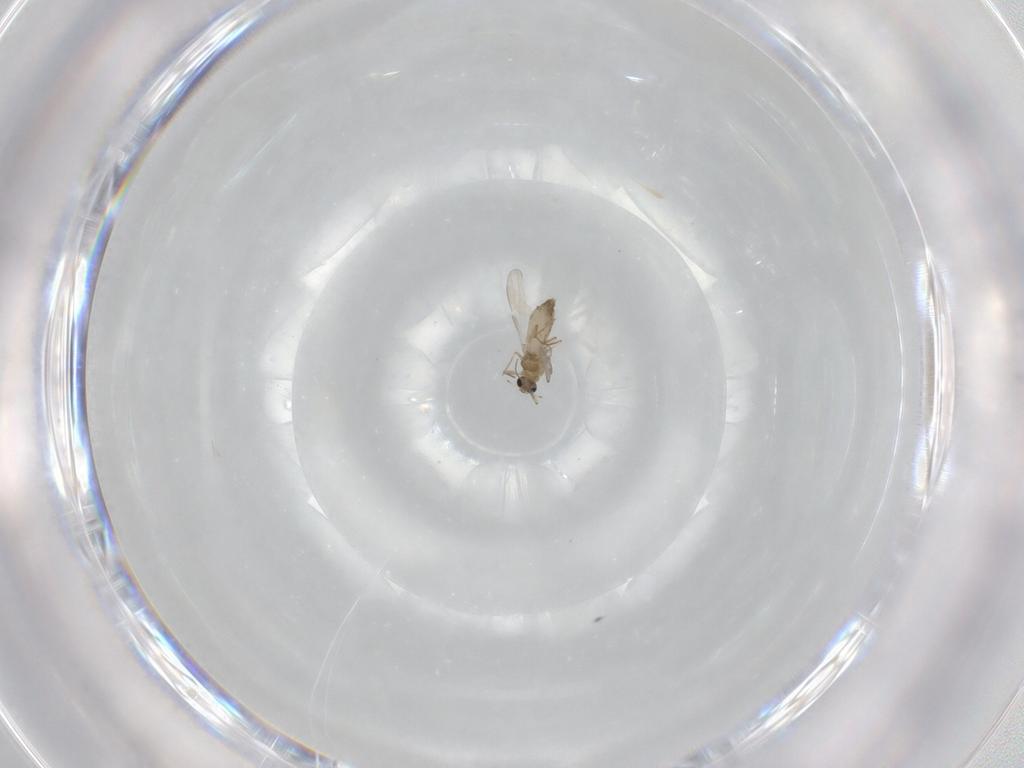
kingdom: Animalia
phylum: Arthropoda
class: Insecta
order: Diptera
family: Chironomidae
